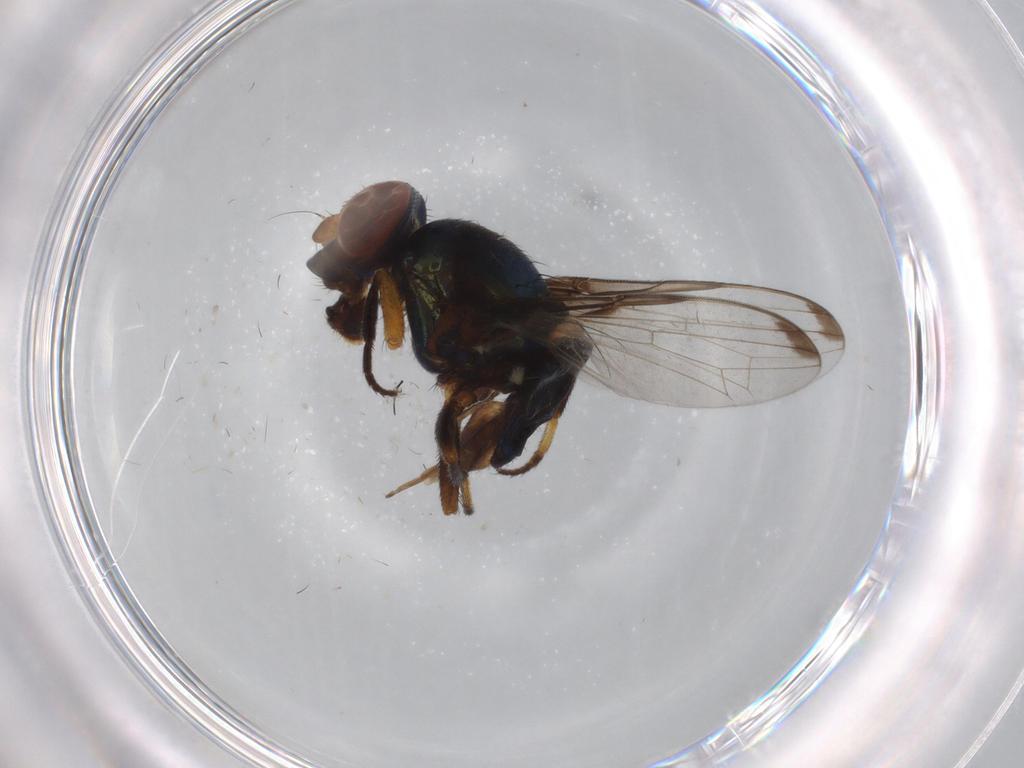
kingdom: Animalia
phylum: Arthropoda
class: Insecta
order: Diptera
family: Ulidiidae
